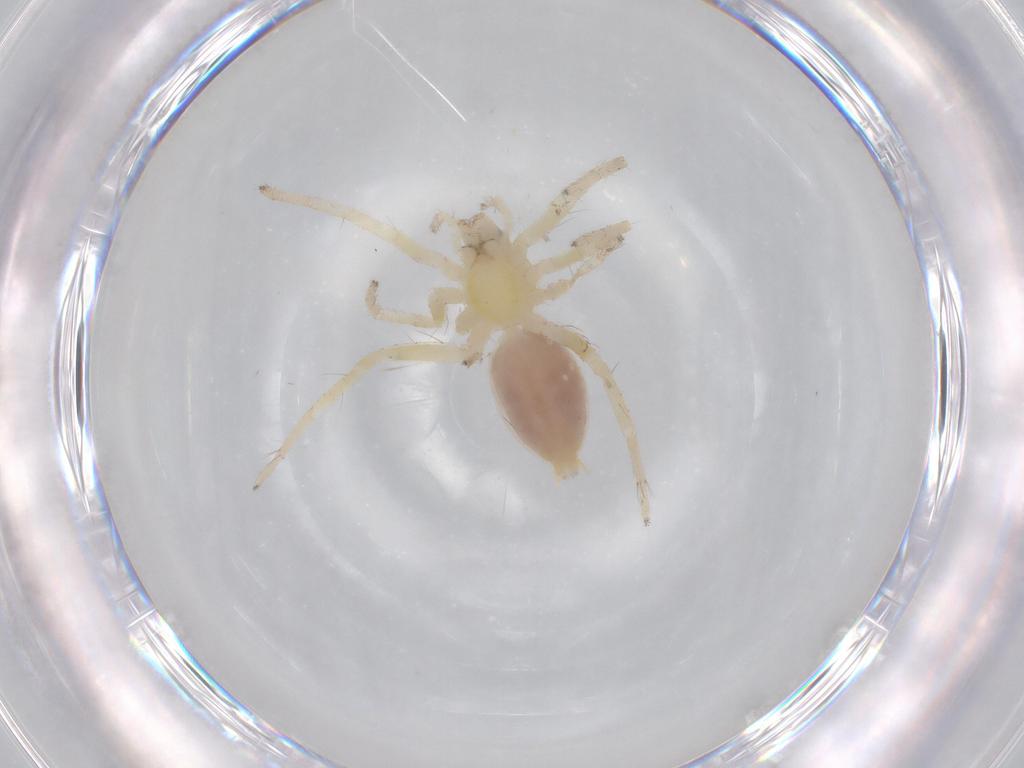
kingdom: Animalia
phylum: Arthropoda
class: Arachnida
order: Araneae
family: Anyphaenidae
